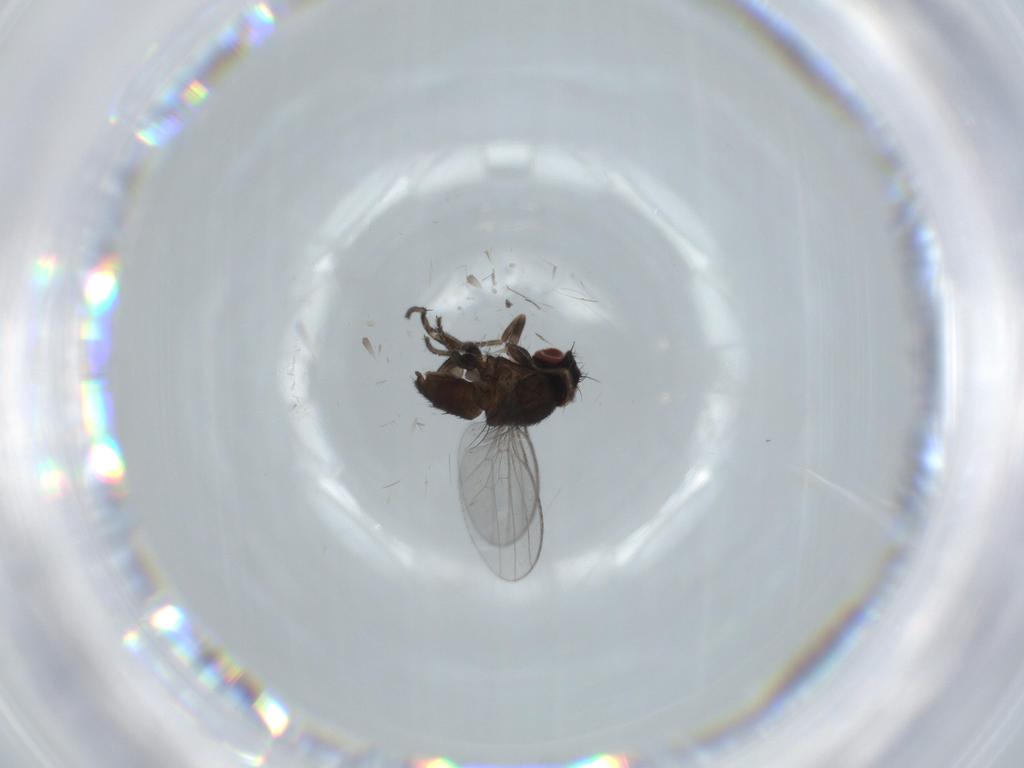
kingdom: Animalia
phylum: Arthropoda
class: Insecta
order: Diptera
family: Milichiidae
